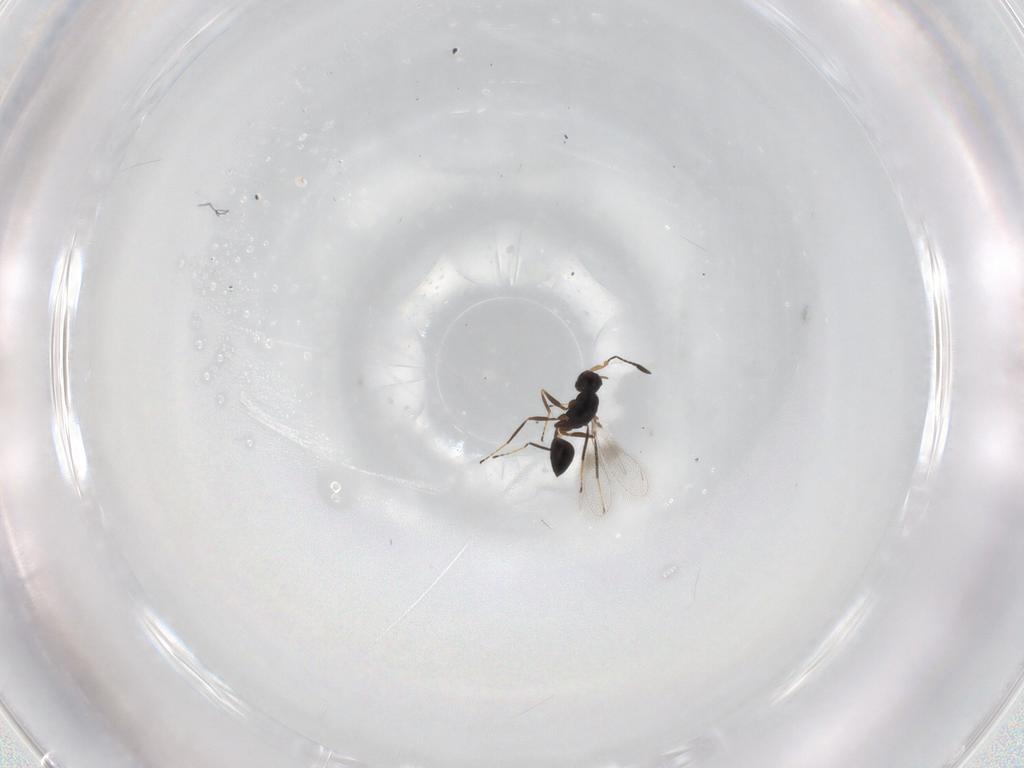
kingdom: Animalia
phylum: Arthropoda
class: Insecta
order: Hymenoptera
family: Mymaridae
